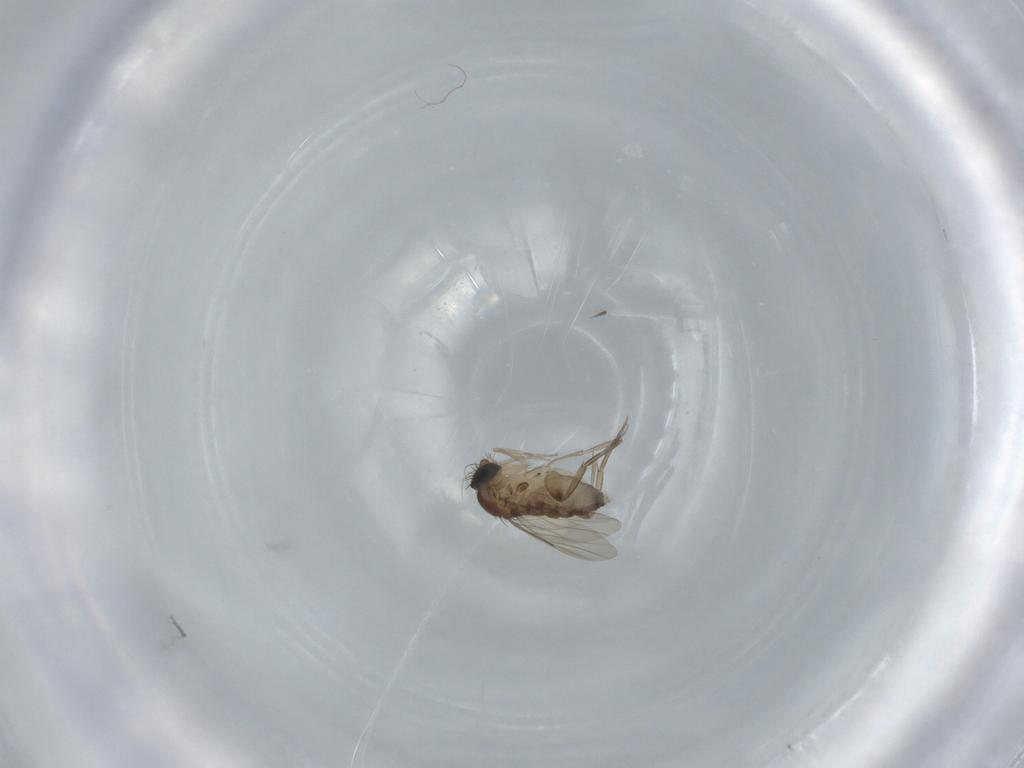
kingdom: Animalia
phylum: Arthropoda
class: Insecta
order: Diptera
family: Phoridae
